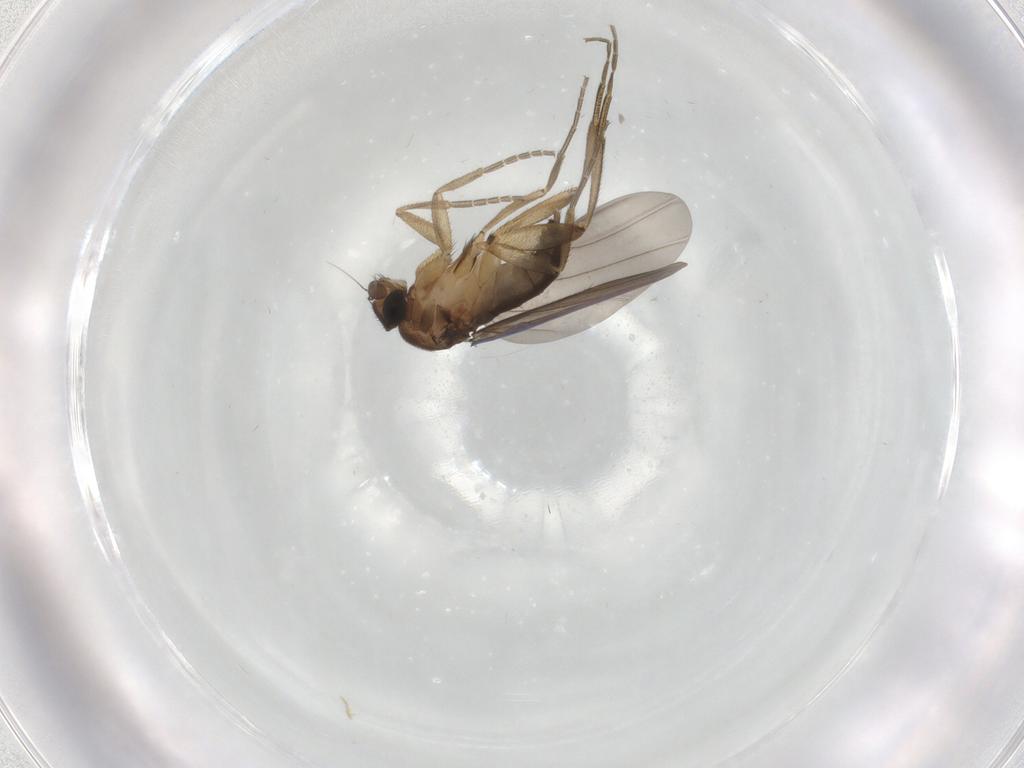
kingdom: Animalia
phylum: Arthropoda
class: Insecta
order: Diptera
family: Phoridae
